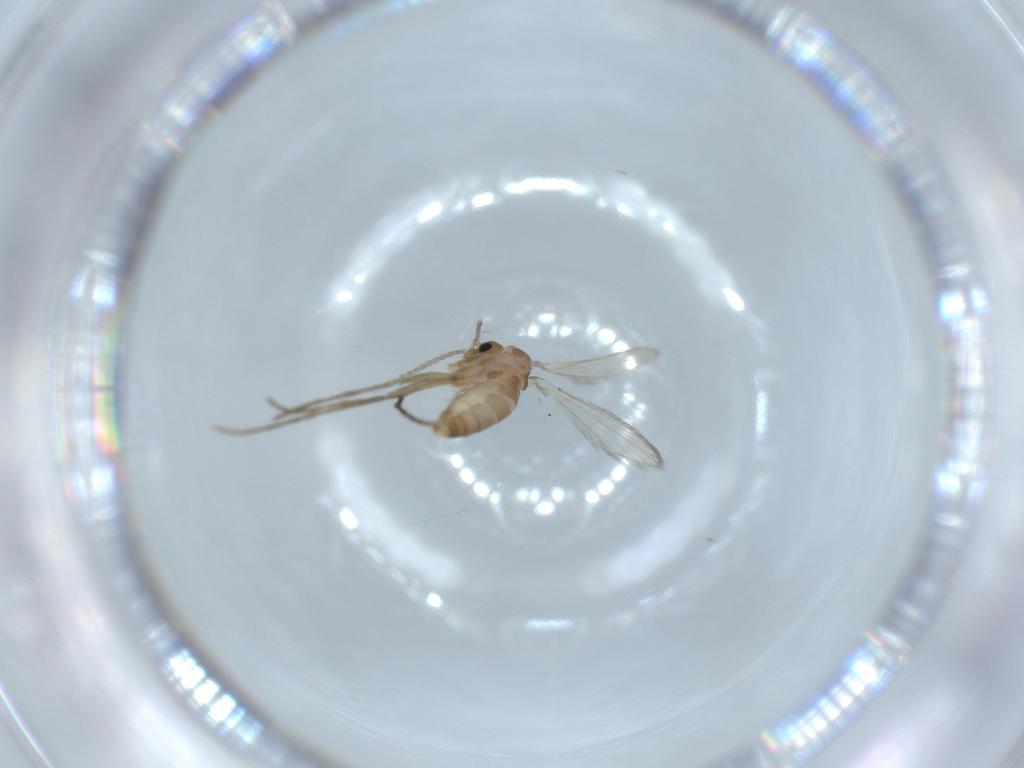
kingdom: Animalia
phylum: Arthropoda
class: Insecta
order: Diptera
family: Psychodidae
